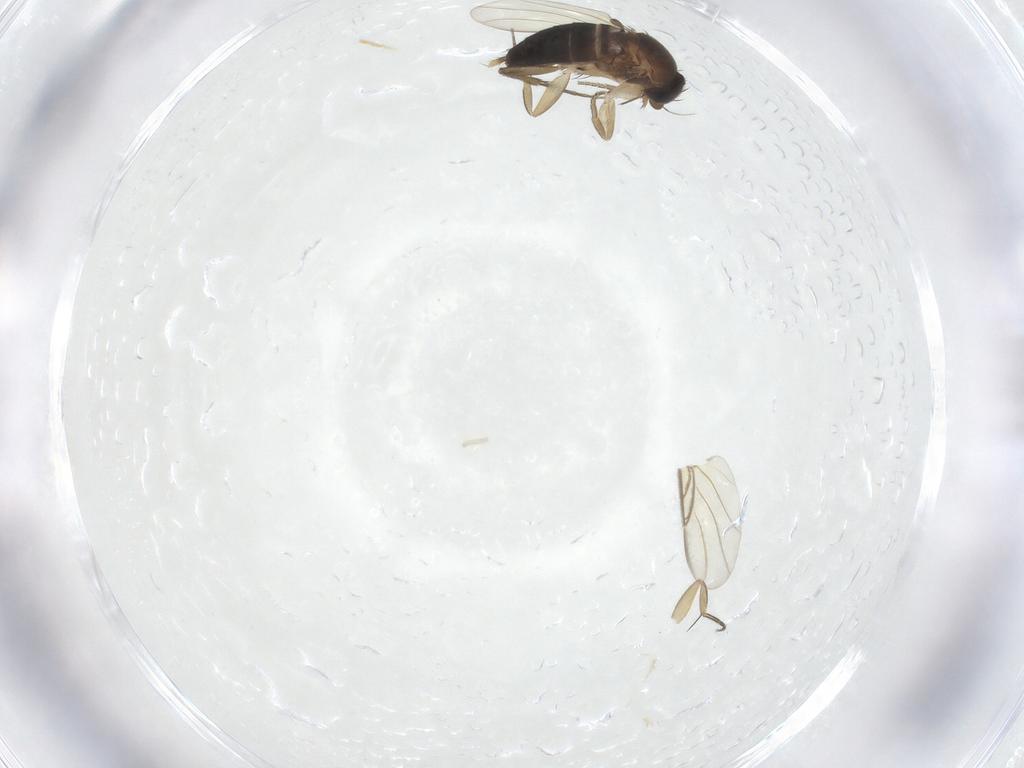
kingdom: Animalia
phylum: Arthropoda
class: Insecta
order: Diptera
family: Phoridae
